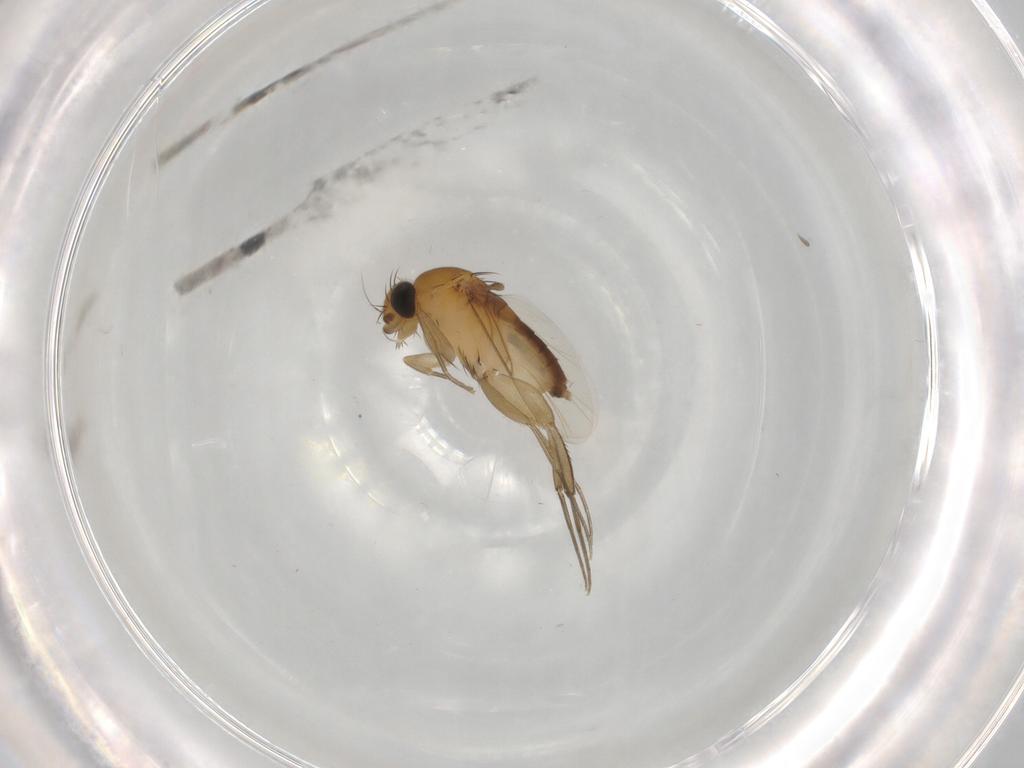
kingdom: Animalia
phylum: Arthropoda
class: Insecta
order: Diptera
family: Phoridae
